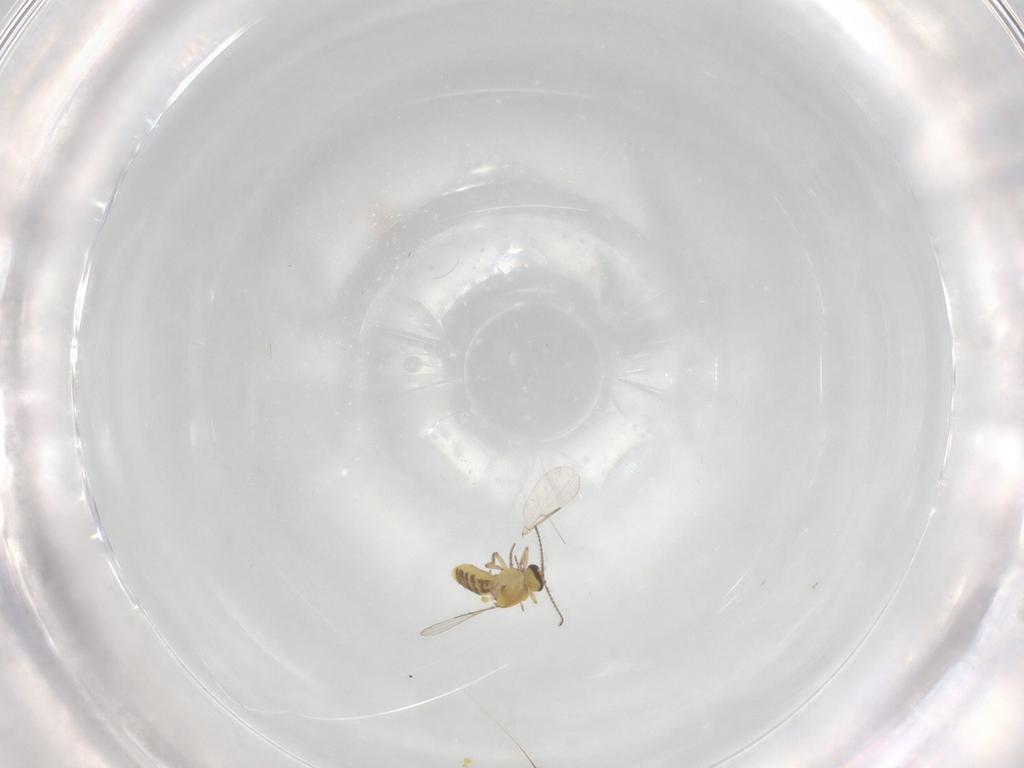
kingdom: Animalia
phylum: Arthropoda
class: Insecta
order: Diptera
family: Ceratopogonidae
